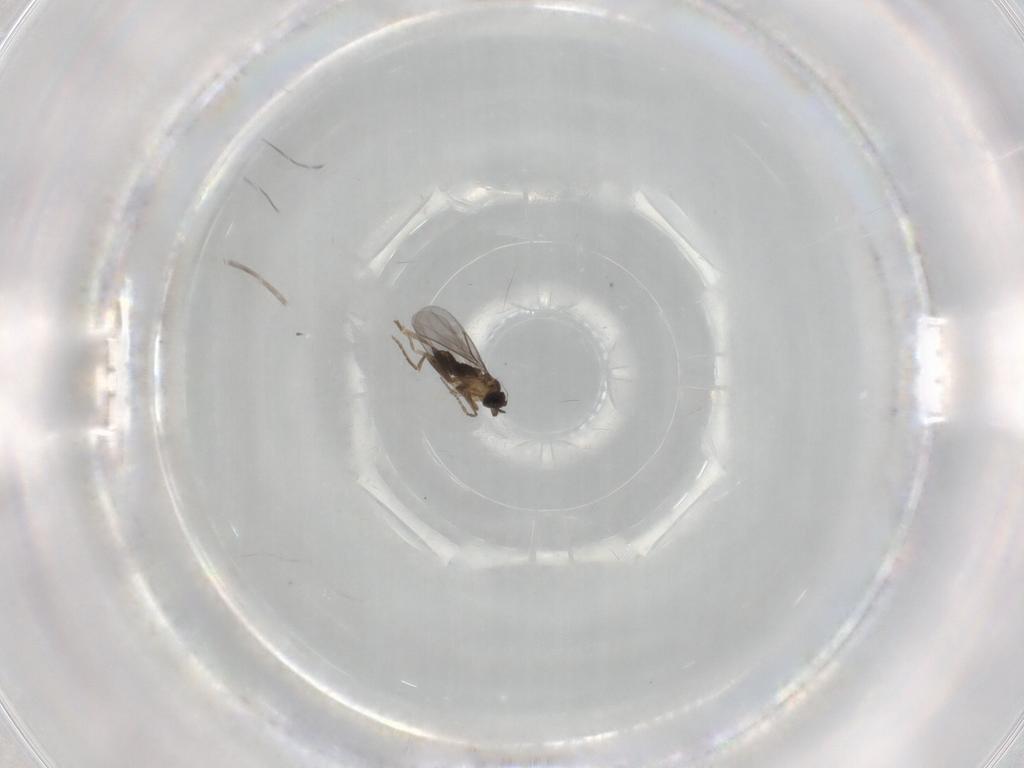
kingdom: Animalia
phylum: Arthropoda
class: Insecta
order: Diptera
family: Phoridae
